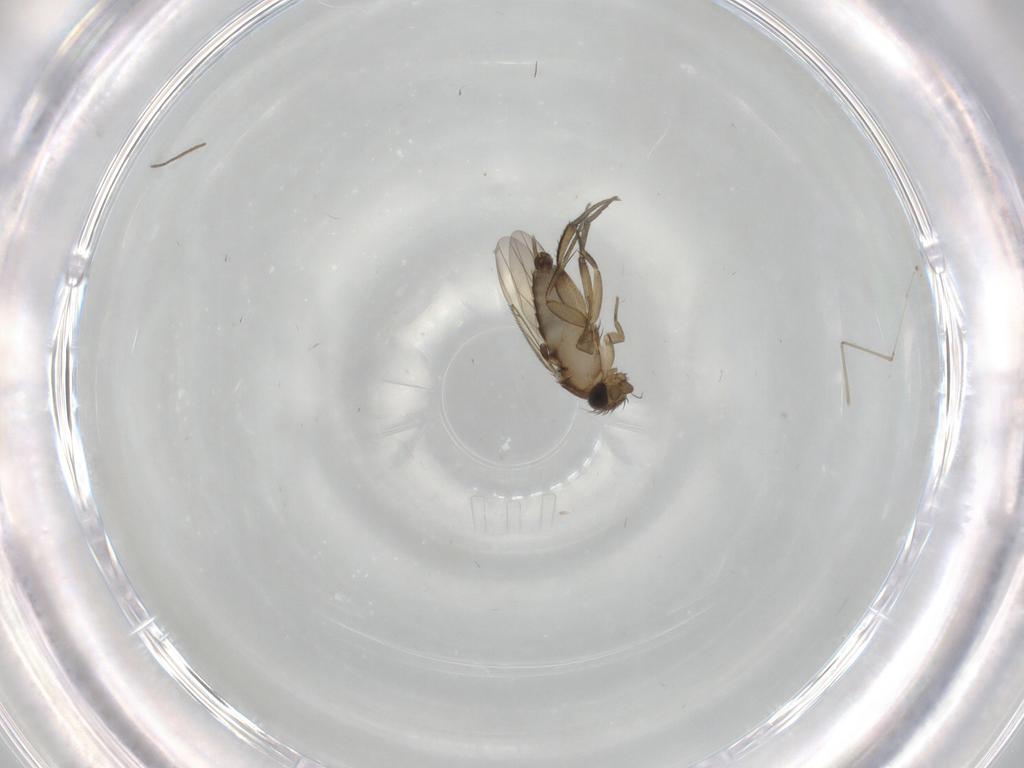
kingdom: Animalia
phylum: Arthropoda
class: Insecta
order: Diptera
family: Phoridae
